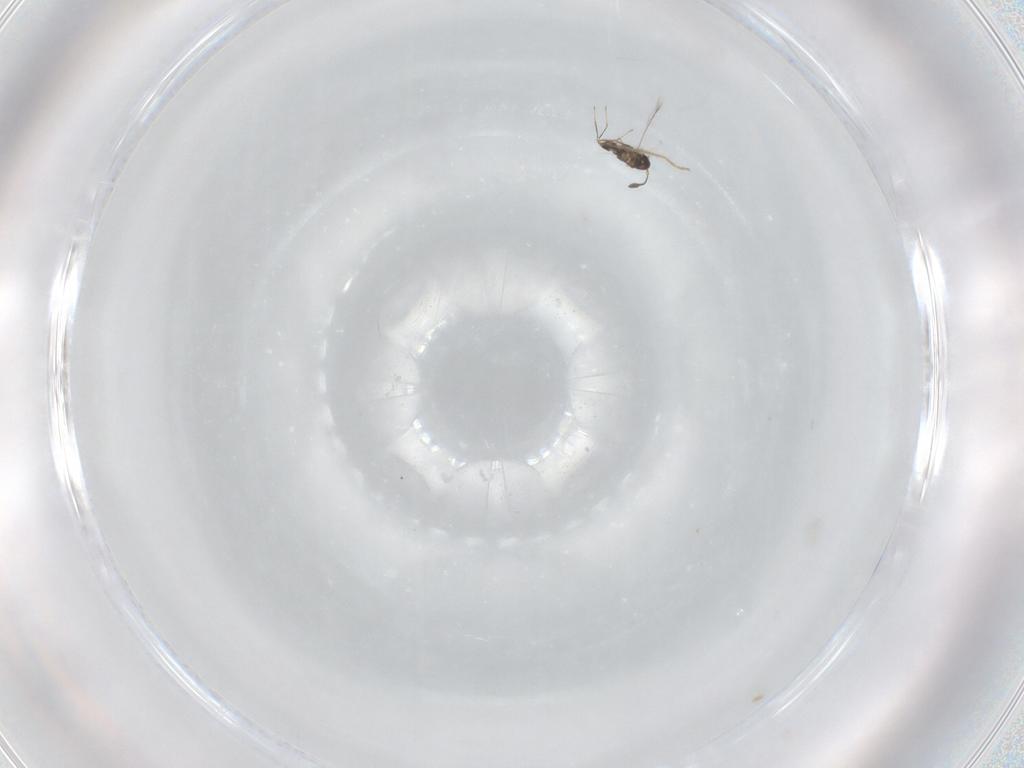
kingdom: Animalia
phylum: Arthropoda
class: Insecta
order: Hymenoptera
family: Mymaridae
